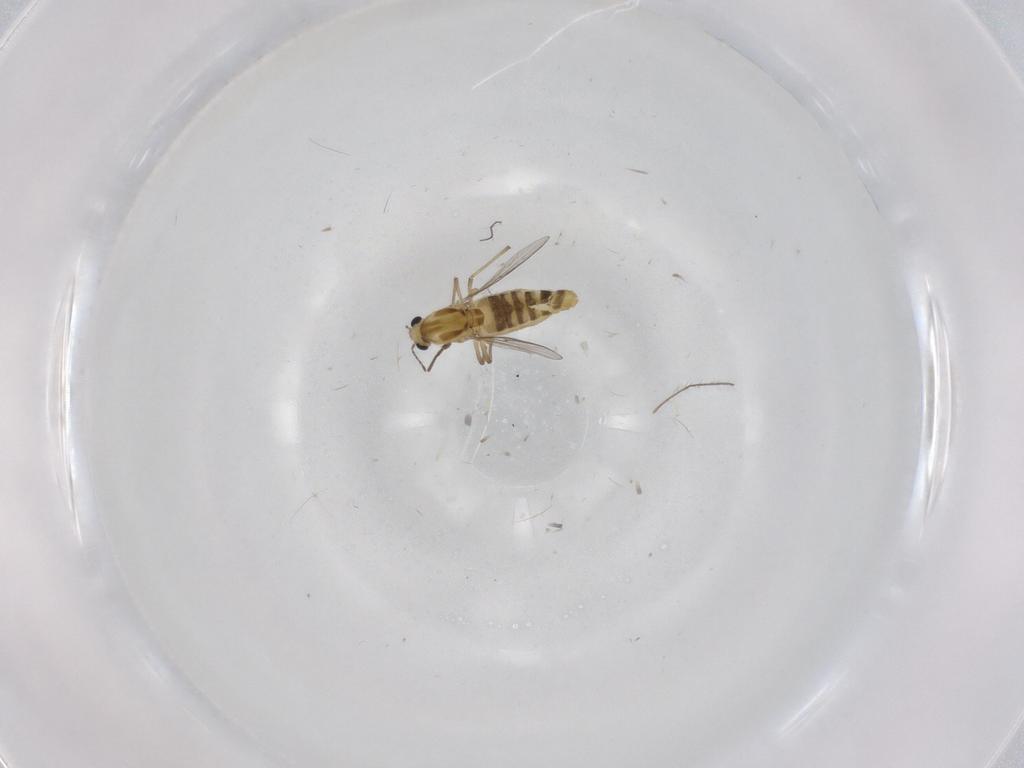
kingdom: Animalia
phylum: Arthropoda
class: Insecta
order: Diptera
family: Chironomidae
